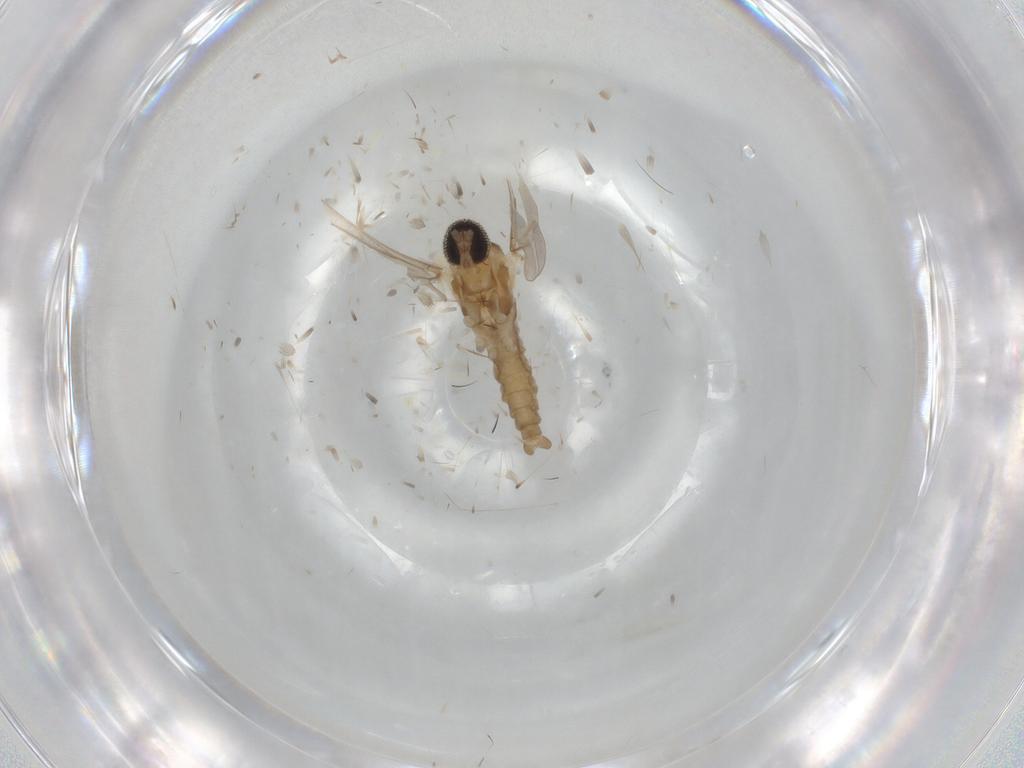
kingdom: Animalia
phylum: Arthropoda
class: Insecta
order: Diptera
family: Cecidomyiidae
